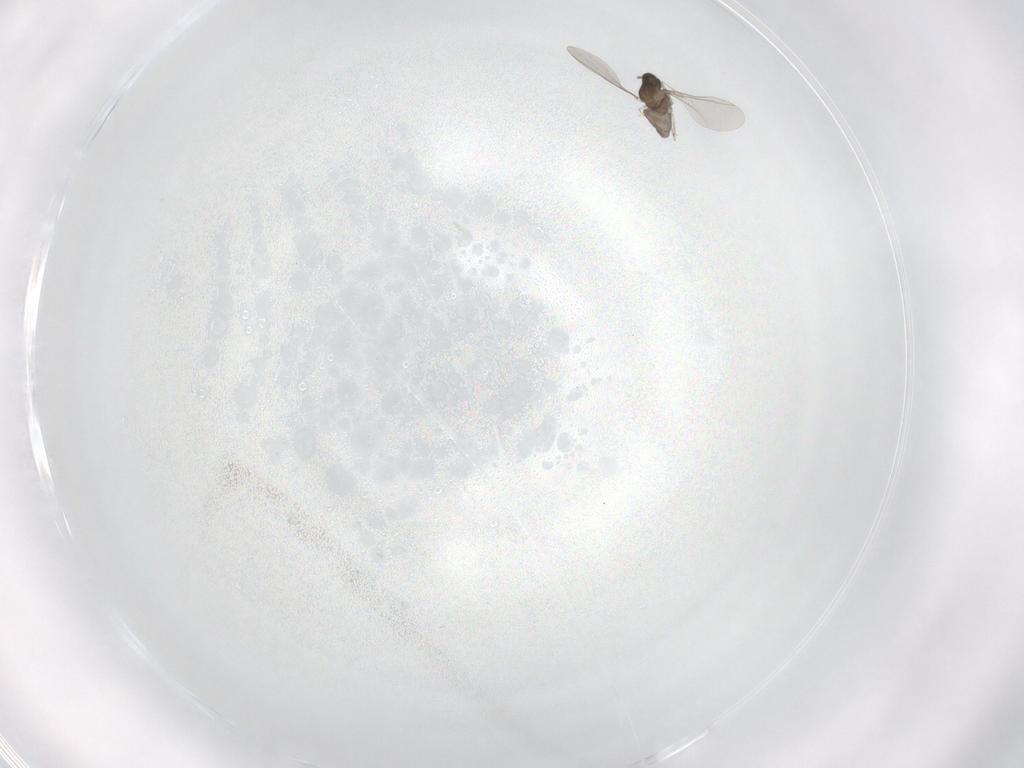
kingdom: Animalia
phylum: Arthropoda
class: Insecta
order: Diptera
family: Cecidomyiidae
